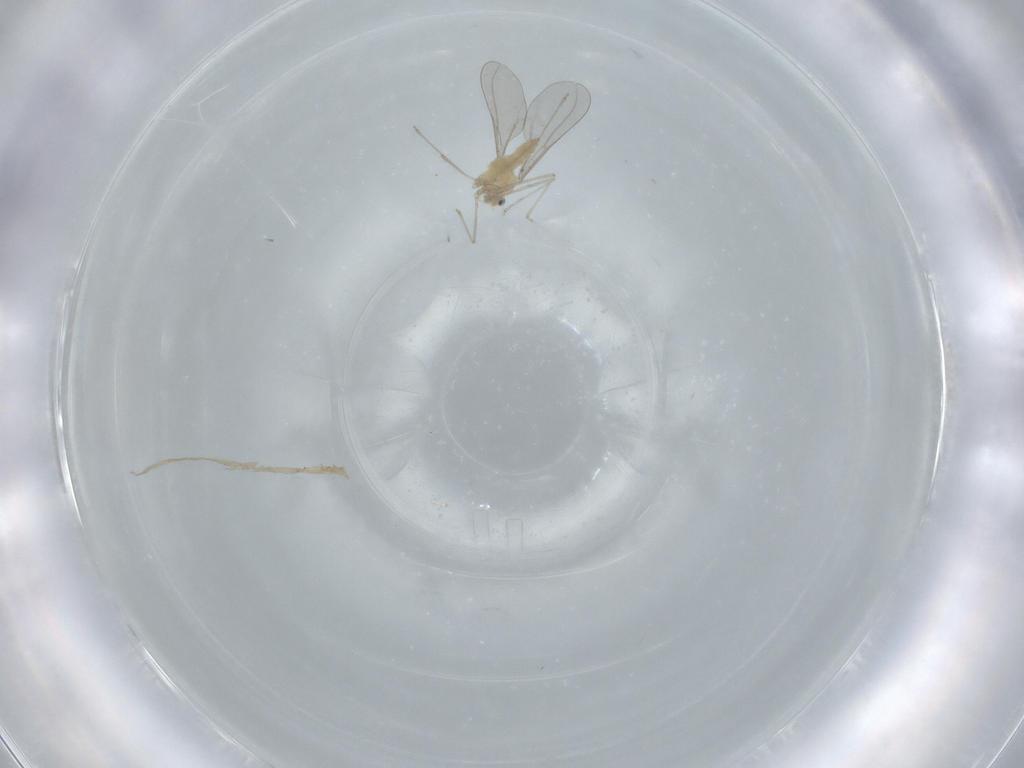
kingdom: Animalia
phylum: Arthropoda
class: Insecta
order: Diptera
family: Cecidomyiidae
